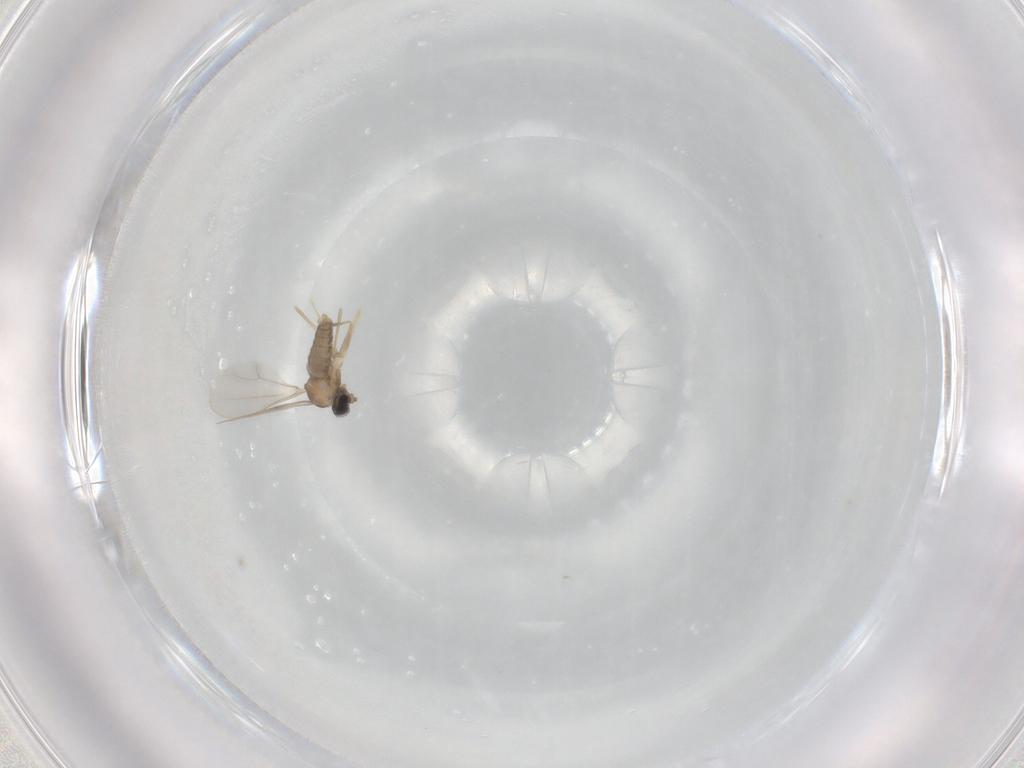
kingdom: Animalia
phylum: Arthropoda
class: Insecta
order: Diptera
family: Cecidomyiidae
